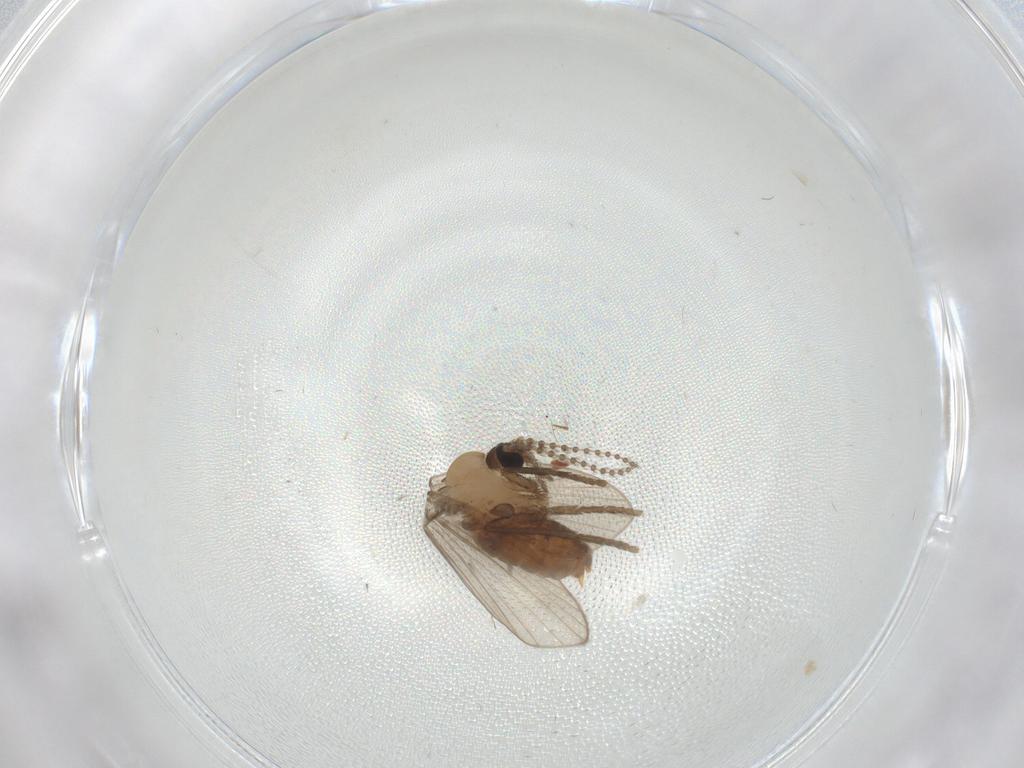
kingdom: Animalia
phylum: Arthropoda
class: Insecta
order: Diptera
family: Psychodidae
